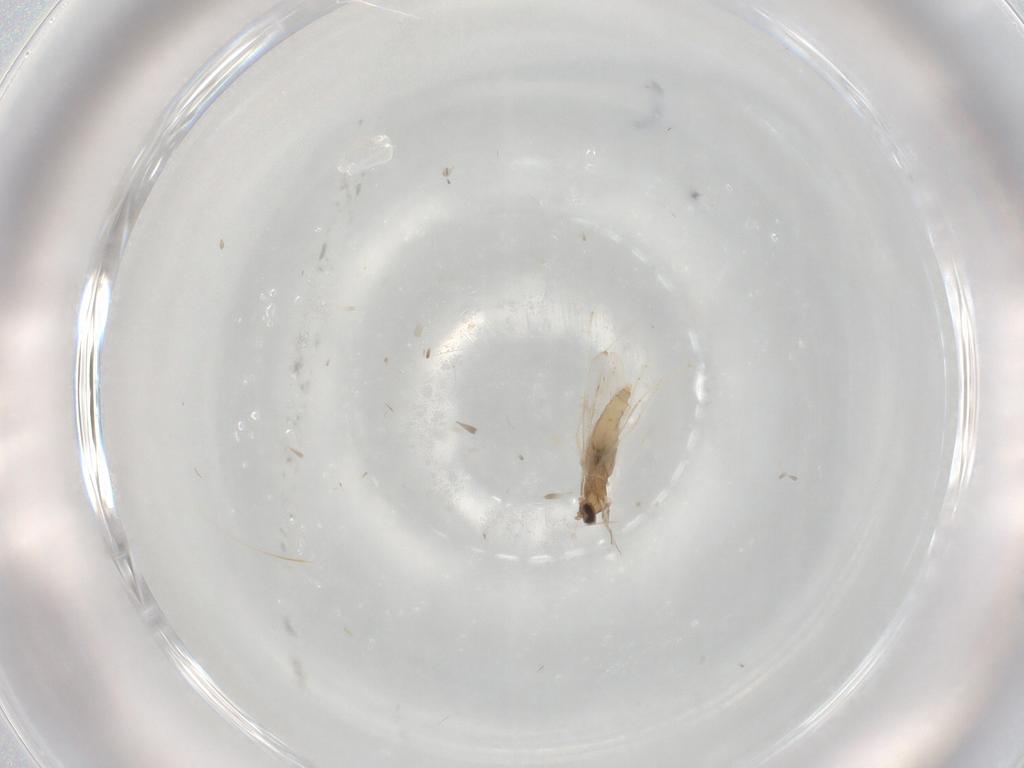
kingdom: Animalia
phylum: Arthropoda
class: Insecta
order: Diptera
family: Cecidomyiidae
